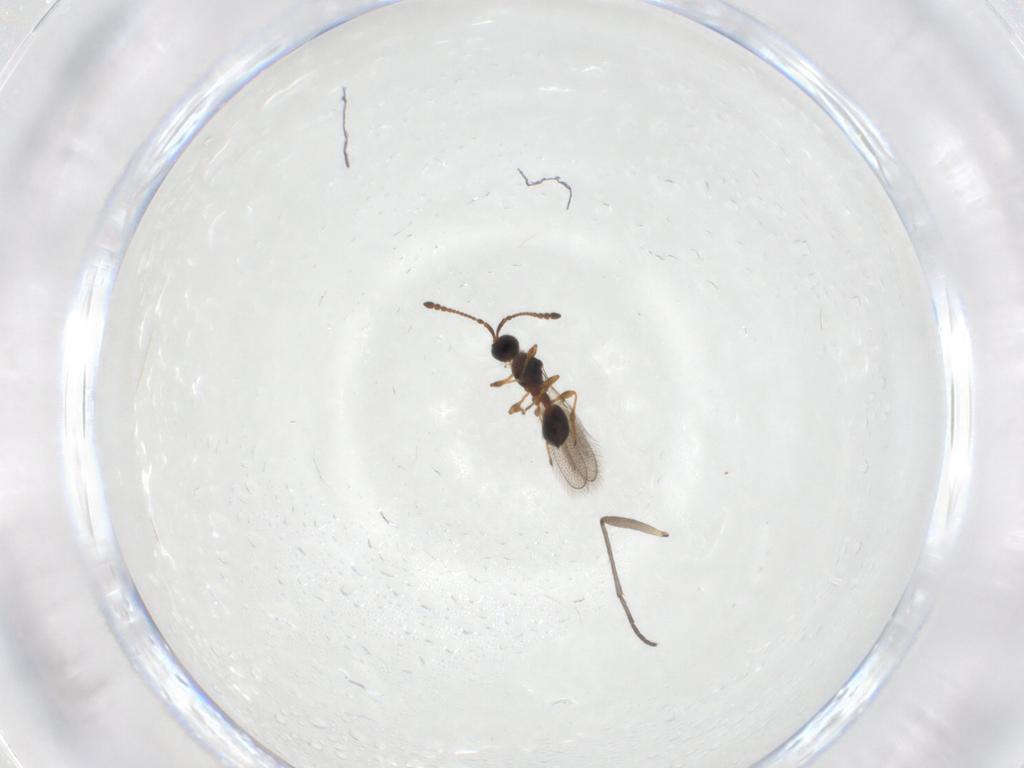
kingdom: Animalia
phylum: Arthropoda
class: Insecta
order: Hymenoptera
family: Diapriidae
